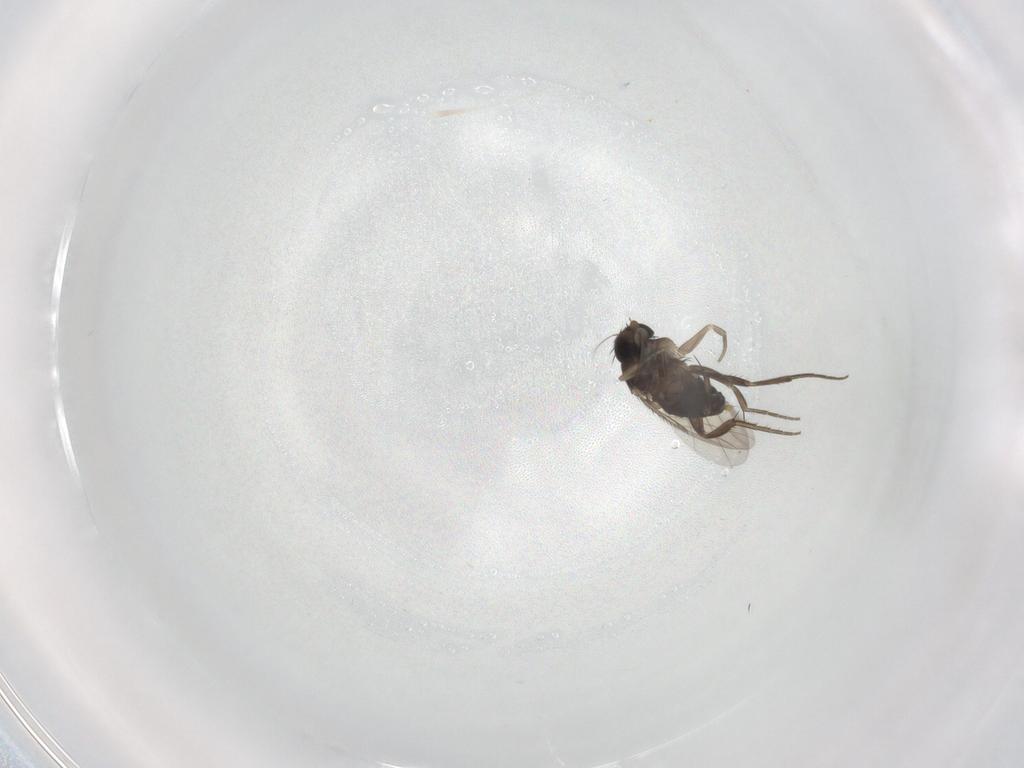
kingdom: Animalia
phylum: Arthropoda
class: Insecta
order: Diptera
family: Phoridae
